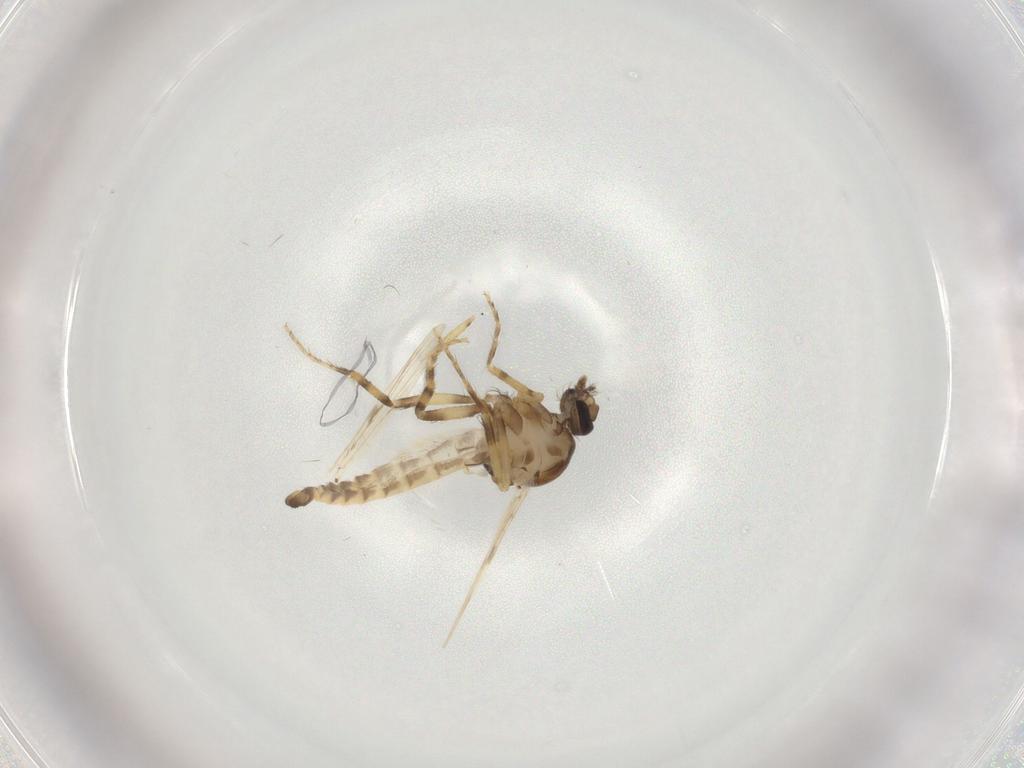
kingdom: Animalia
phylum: Arthropoda
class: Insecta
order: Diptera
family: Ceratopogonidae
